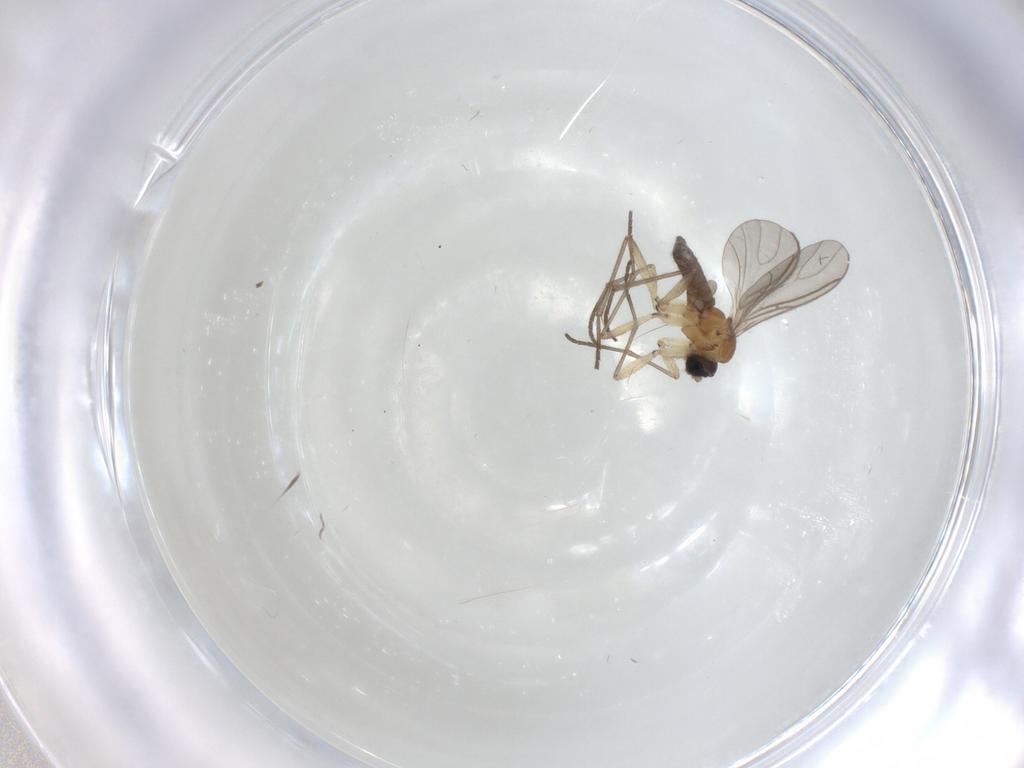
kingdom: Animalia
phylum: Arthropoda
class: Insecta
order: Diptera
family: Sciaridae
